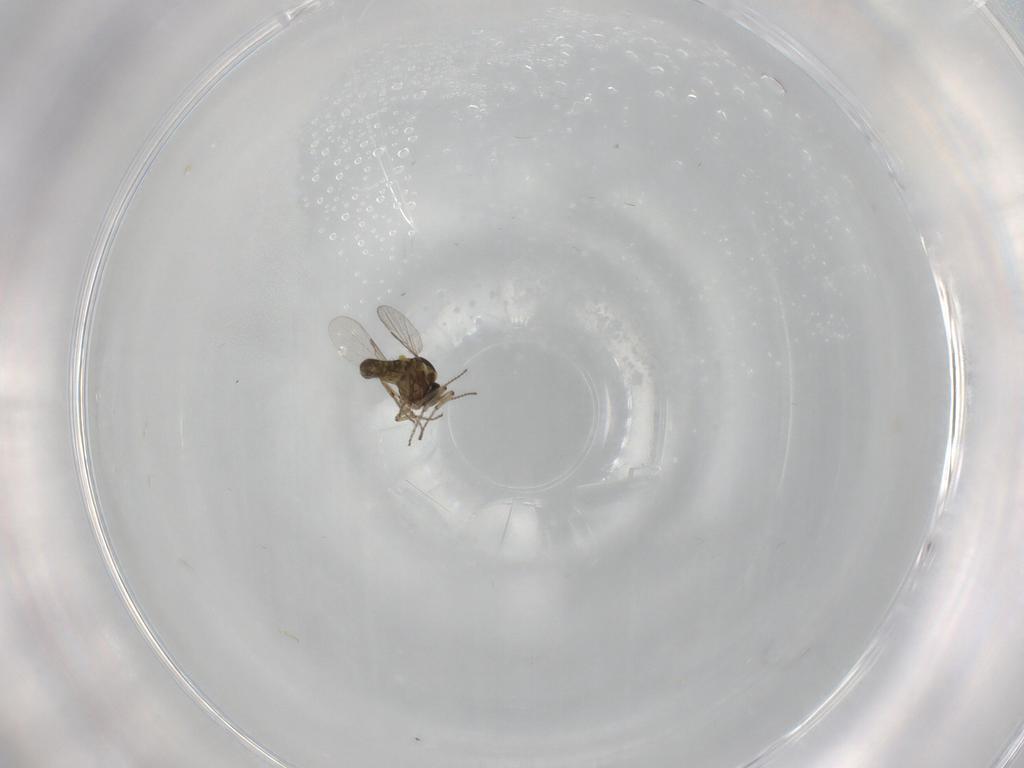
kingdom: Animalia
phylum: Arthropoda
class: Insecta
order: Diptera
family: Ceratopogonidae
